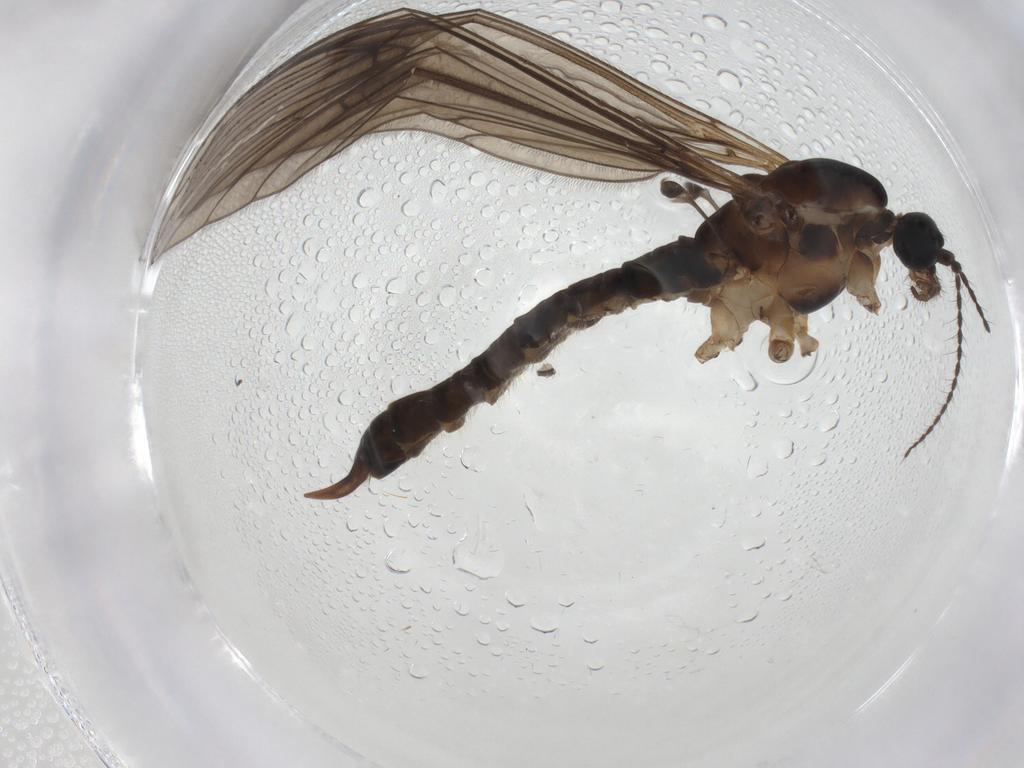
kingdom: Animalia
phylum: Arthropoda
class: Insecta
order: Diptera
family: Limoniidae
